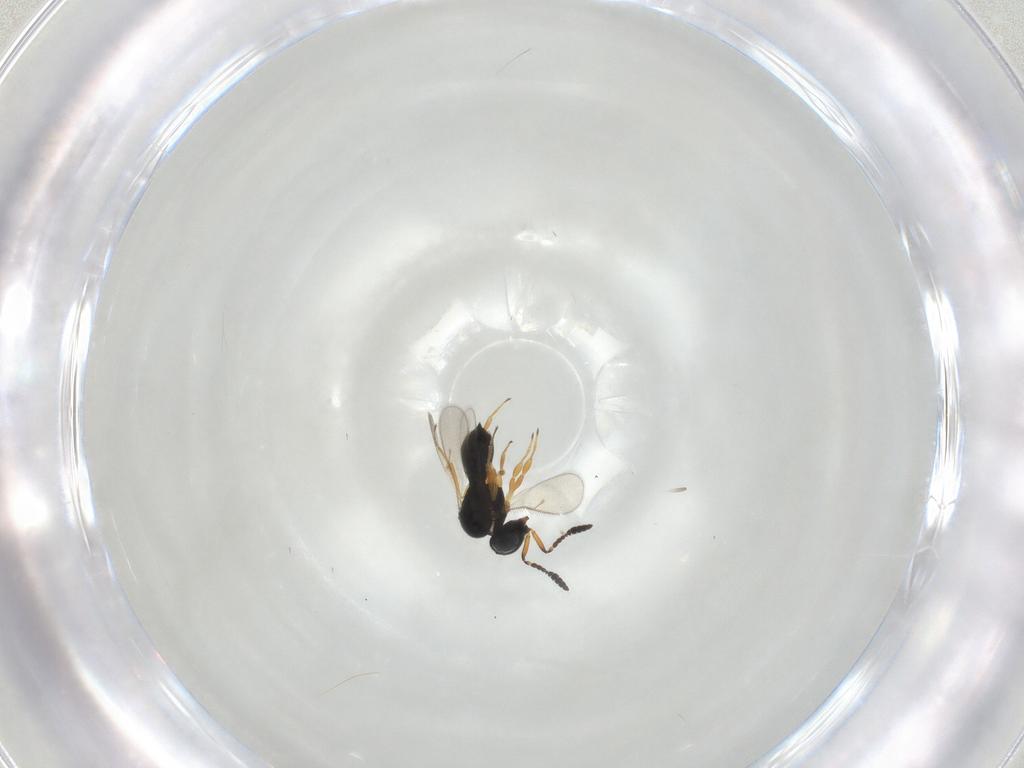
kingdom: Animalia
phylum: Arthropoda
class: Insecta
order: Hymenoptera
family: Scelionidae
